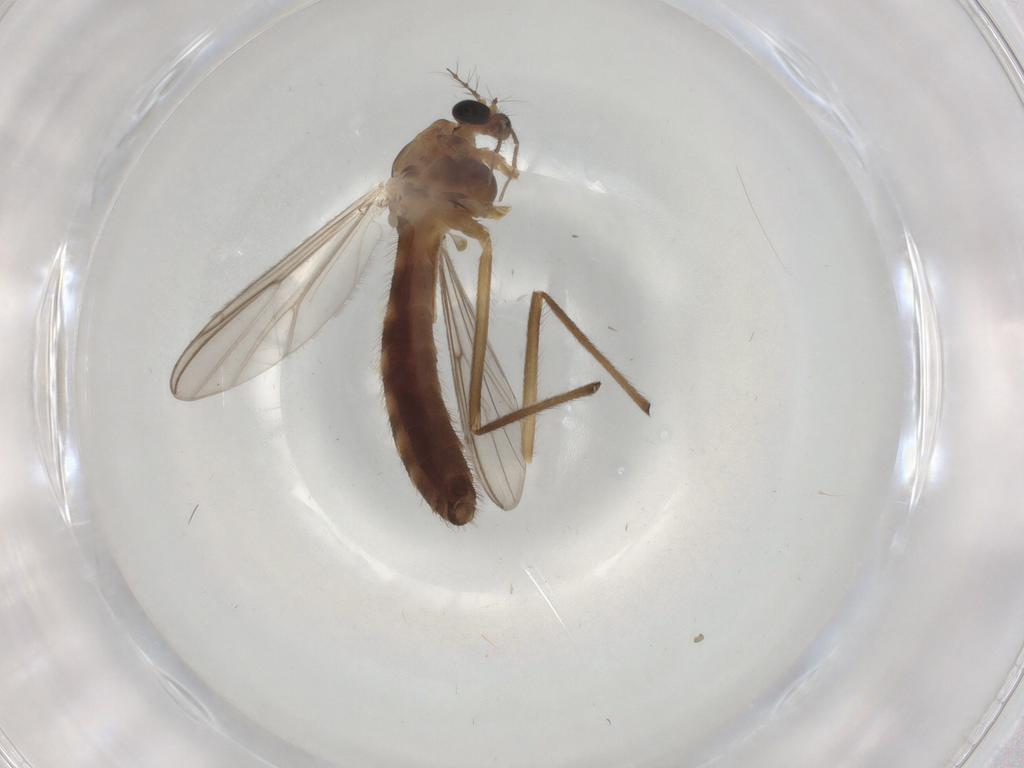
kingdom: Animalia
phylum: Arthropoda
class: Insecta
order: Diptera
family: Chironomidae
